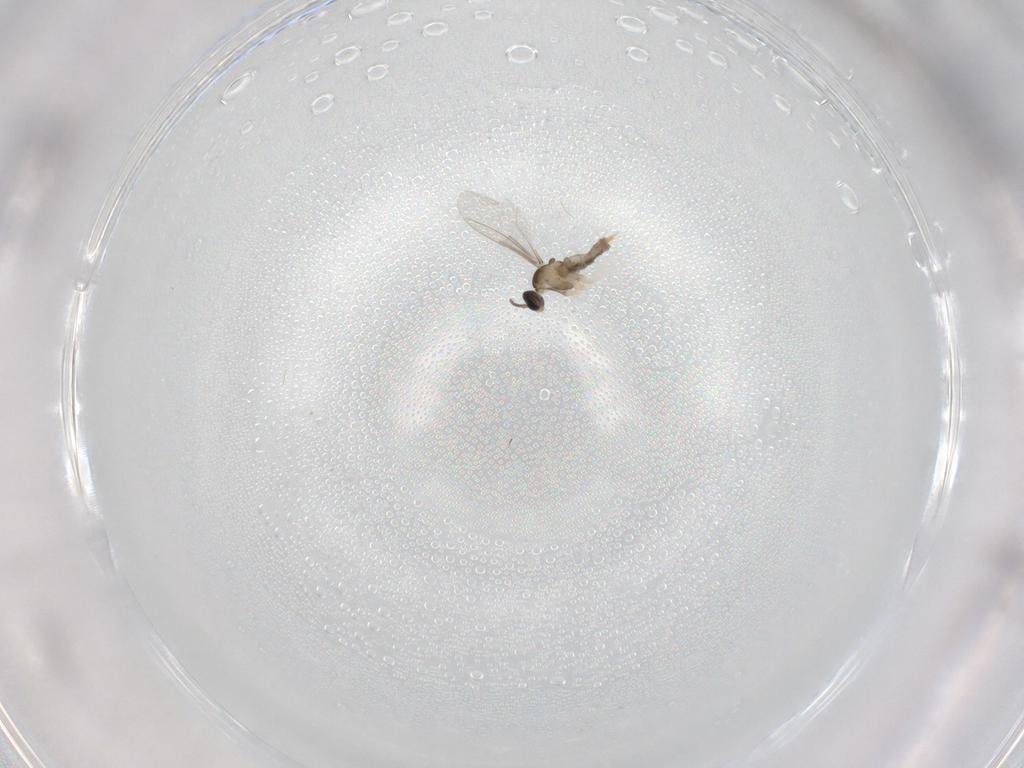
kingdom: Animalia
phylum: Arthropoda
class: Insecta
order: Diptera
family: Cecidomyiidae
